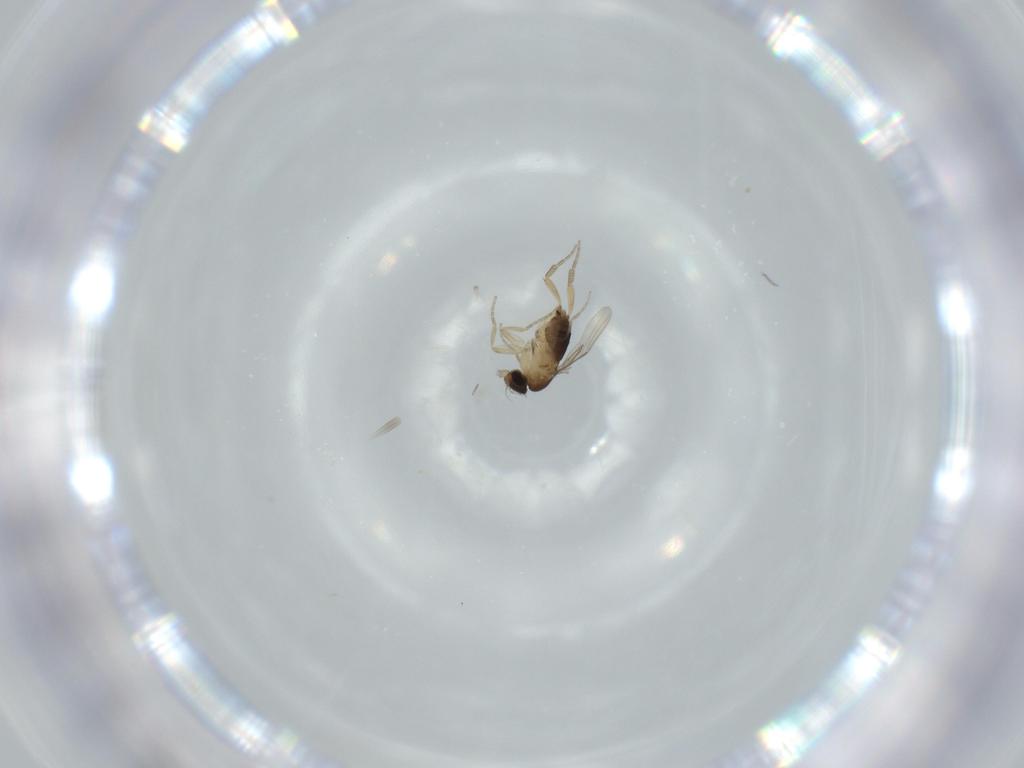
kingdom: Animalia
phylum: Arthropoda
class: Insecta
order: Diptera
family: Phoridae
